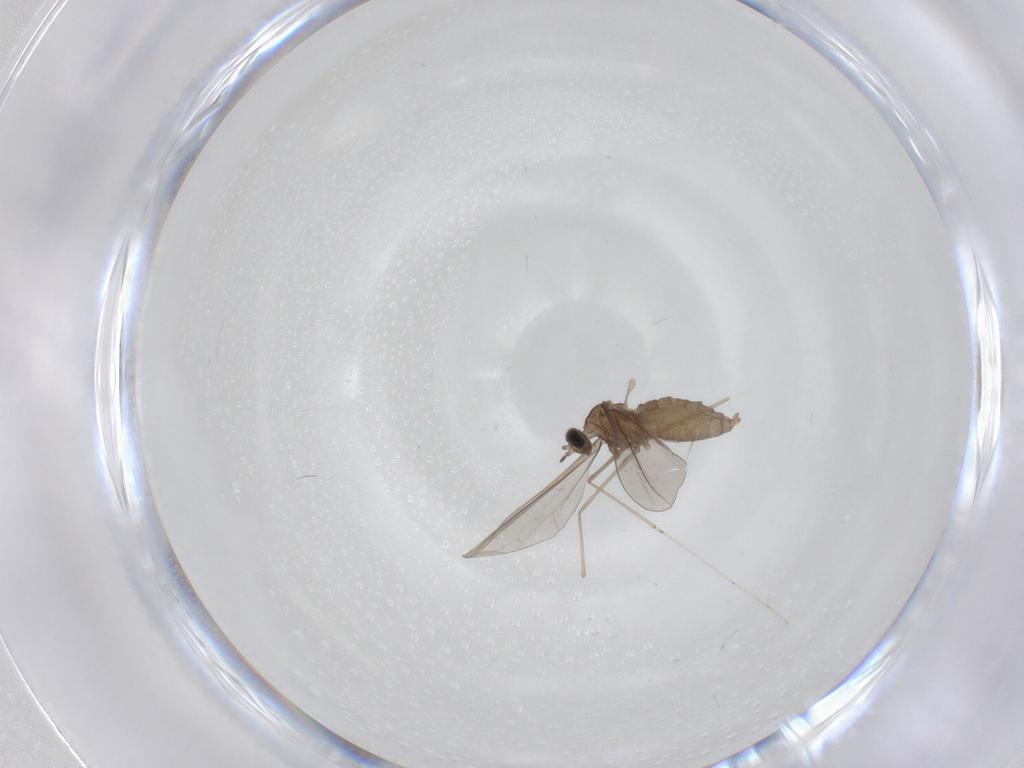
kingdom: Animalia
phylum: Arthropoda
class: Insecta
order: Diptera
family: Cecidomyiidae
